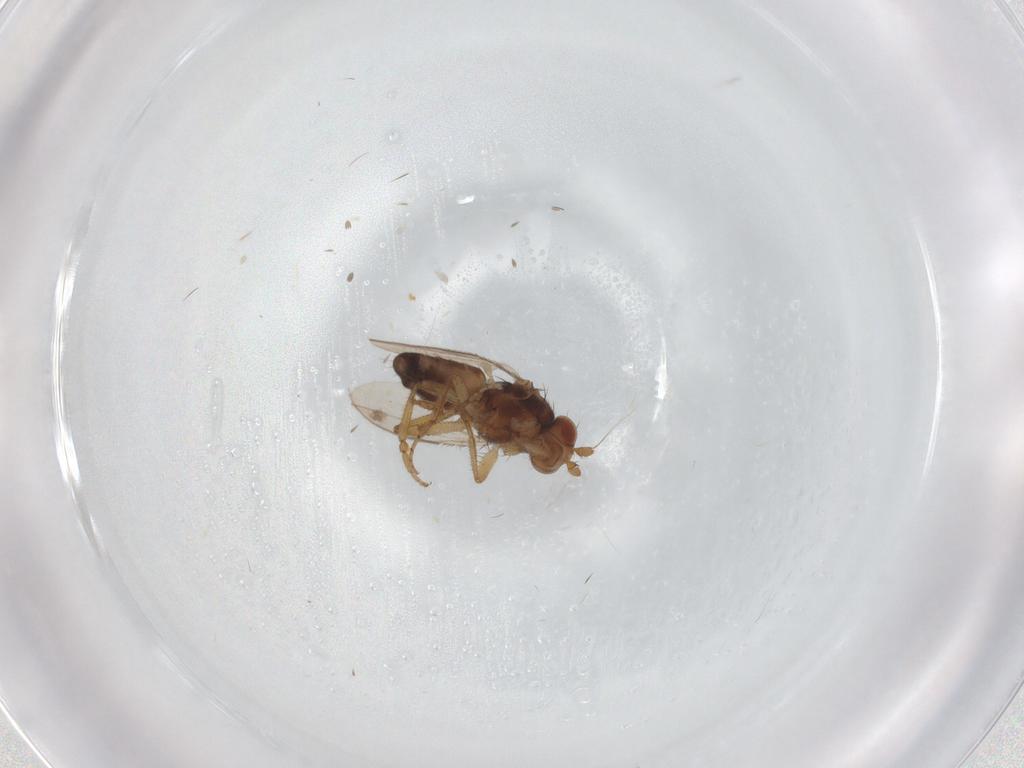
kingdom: Animalia
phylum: Arthropoda
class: Insecta
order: Diptera
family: Sphaeroceridae
